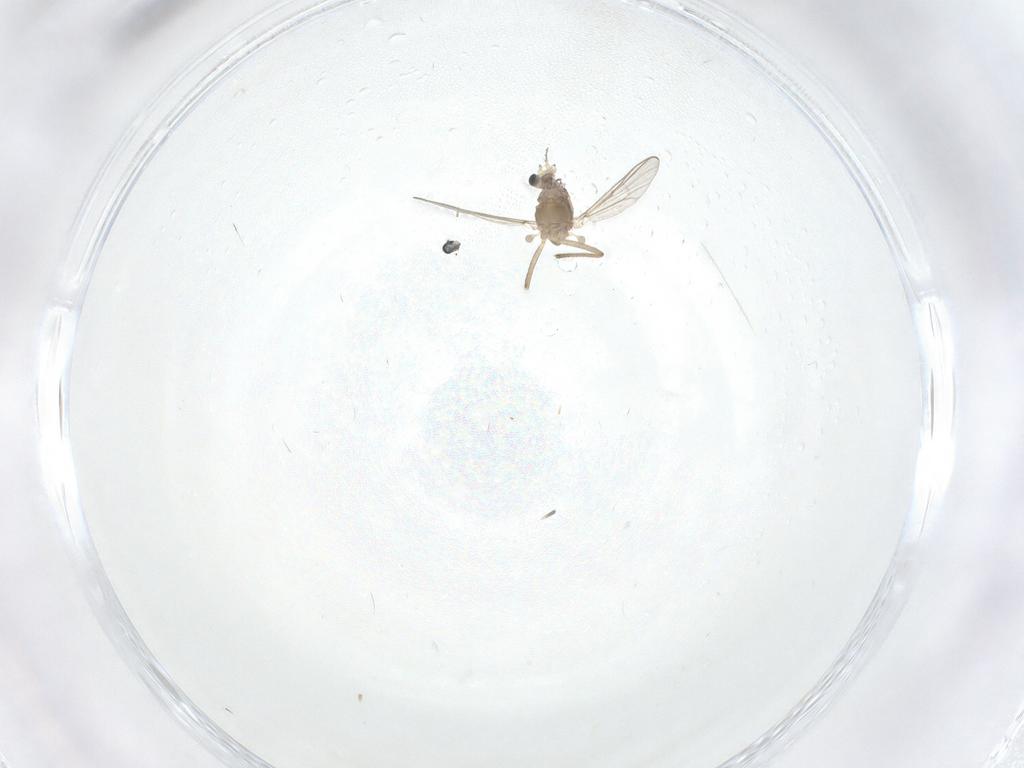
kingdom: Animalia
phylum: Arthropoda
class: Insecta
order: Diptera
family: Chironomidae
